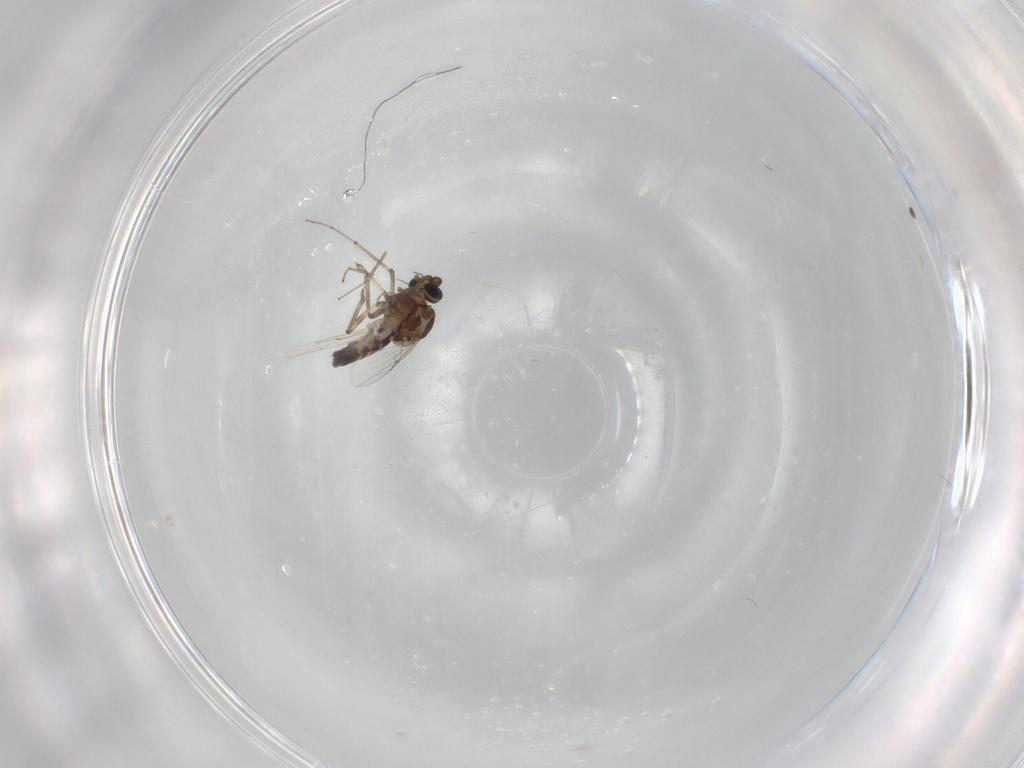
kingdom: Animalia
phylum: Arthropoda
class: Insecta
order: Diptera
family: Ceratopogonidae
